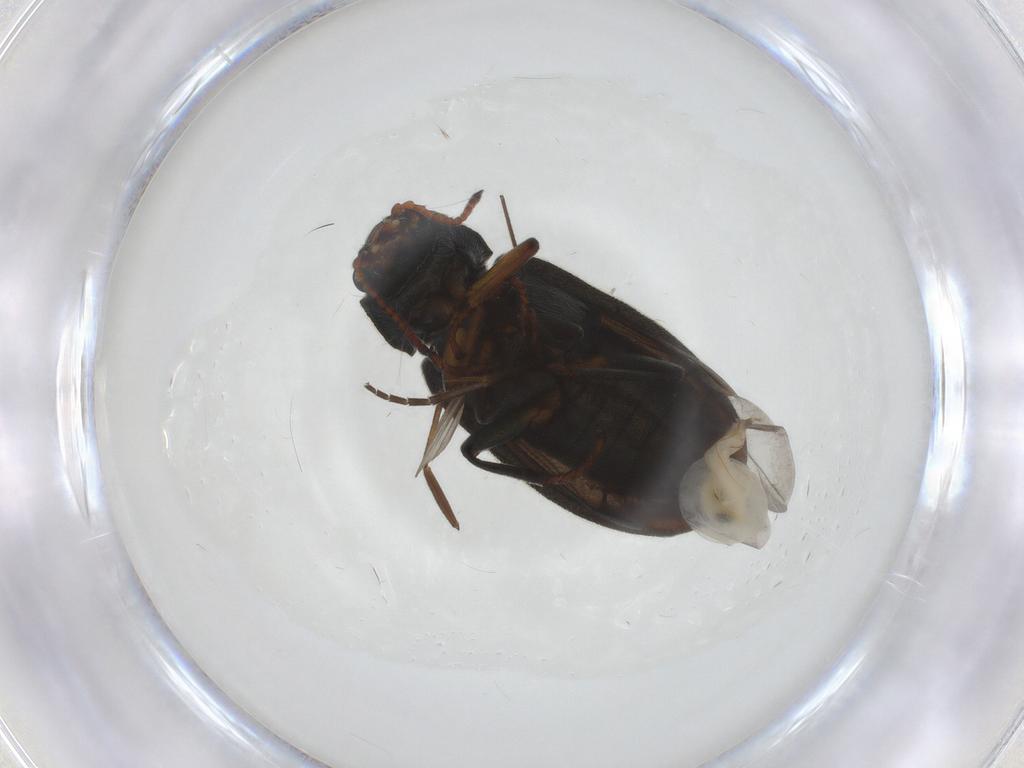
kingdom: Animalia
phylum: Arthropoda
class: Insecta
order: Coleoptera
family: Melyridae
